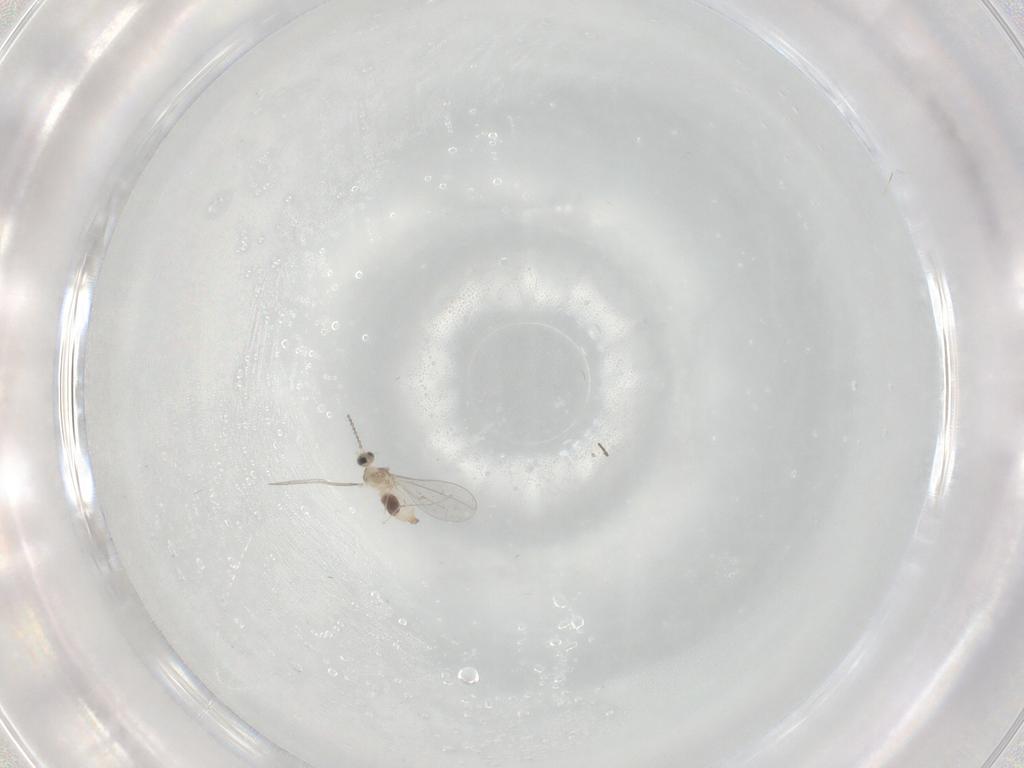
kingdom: Animalia
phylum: Arthropoda
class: Insecta
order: Diptera
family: Cecidomyiidae
